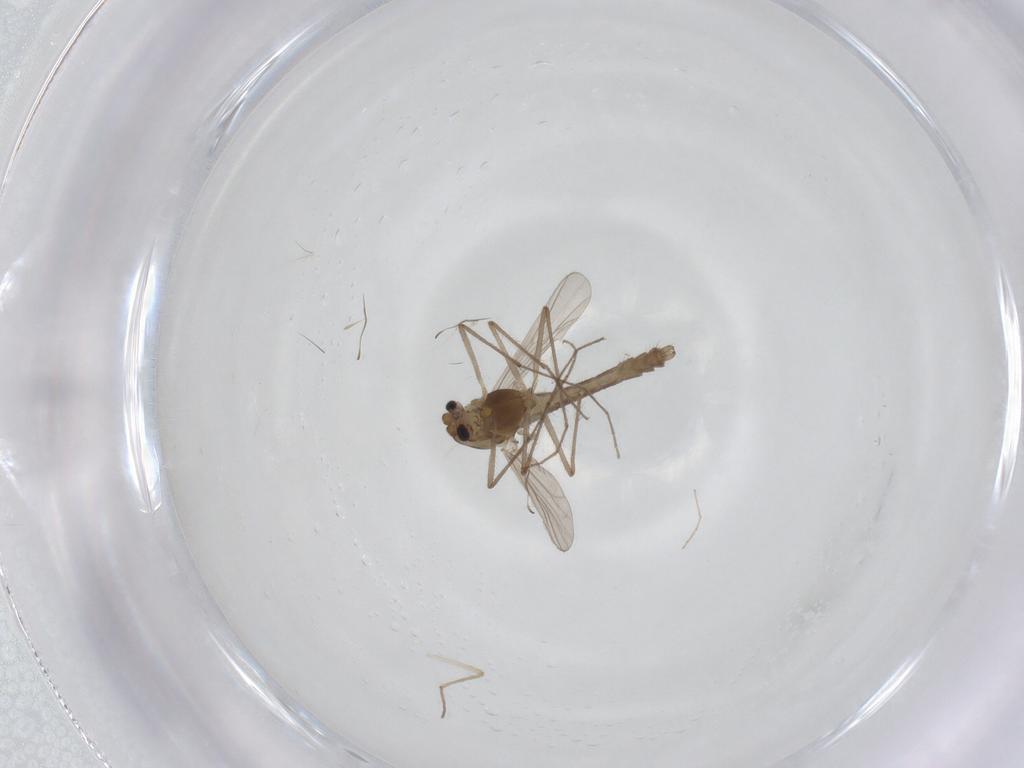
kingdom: Animalia
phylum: Arthropoda
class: Insecta
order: Diptera
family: Chironomidae
